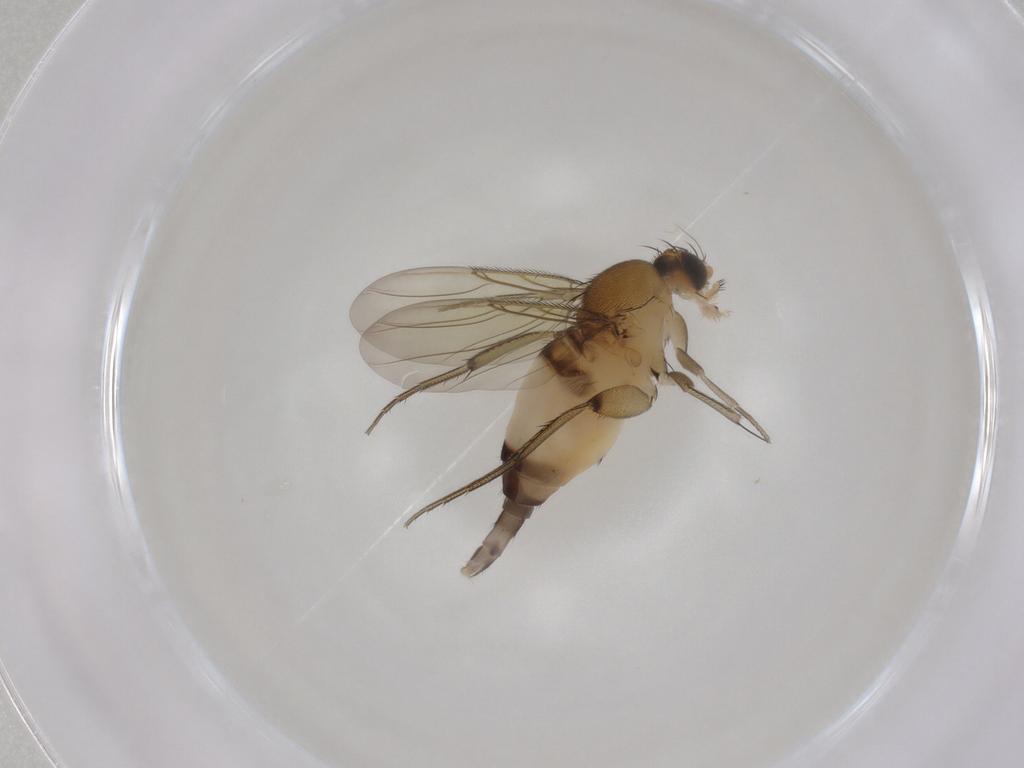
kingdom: Animalia
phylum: Arthropoda
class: Insecta
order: Diptera
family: Phoridae
